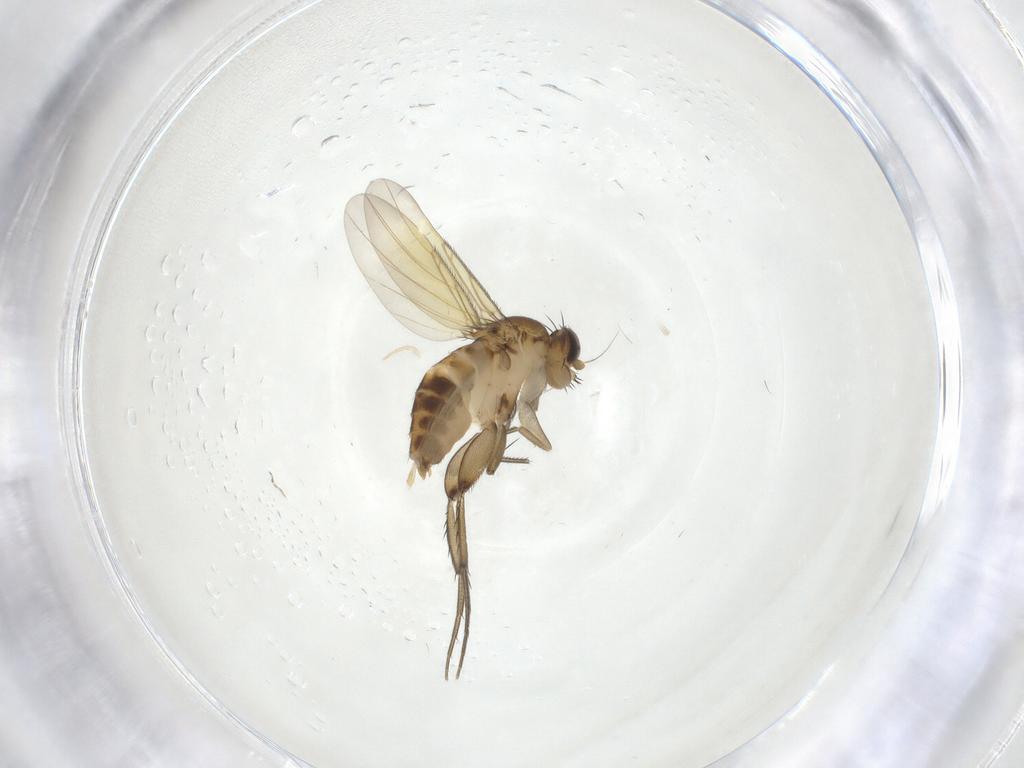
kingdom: Animalia
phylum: Arthropoda
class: Insecta
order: Diptera
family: Phoridae
